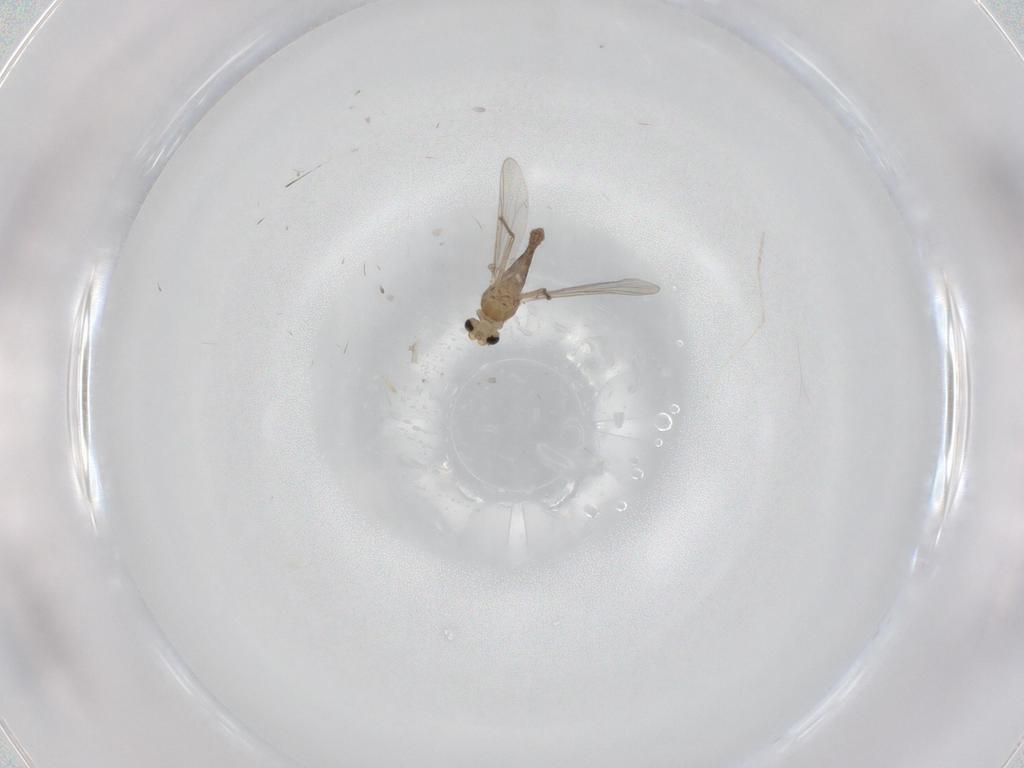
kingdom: Animalia
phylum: Arthropoda
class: Insecta
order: Diptera
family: Chironomidae
